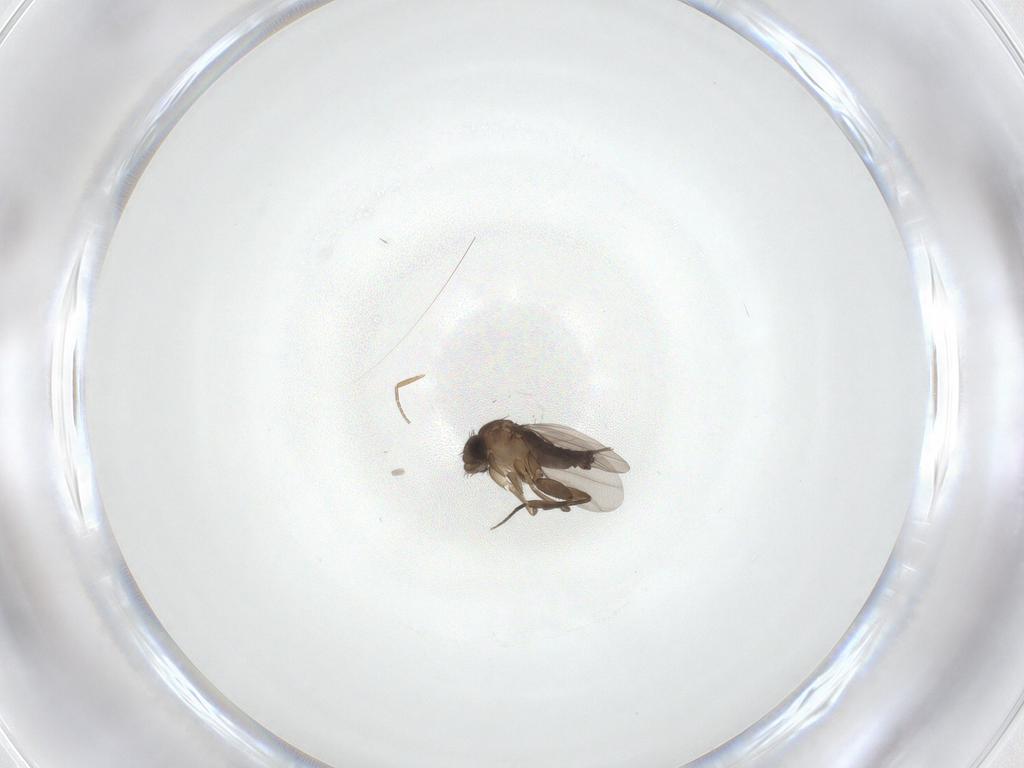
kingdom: Animalia
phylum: Arthropoda
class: Insecta
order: Diptera
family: Phoridae
